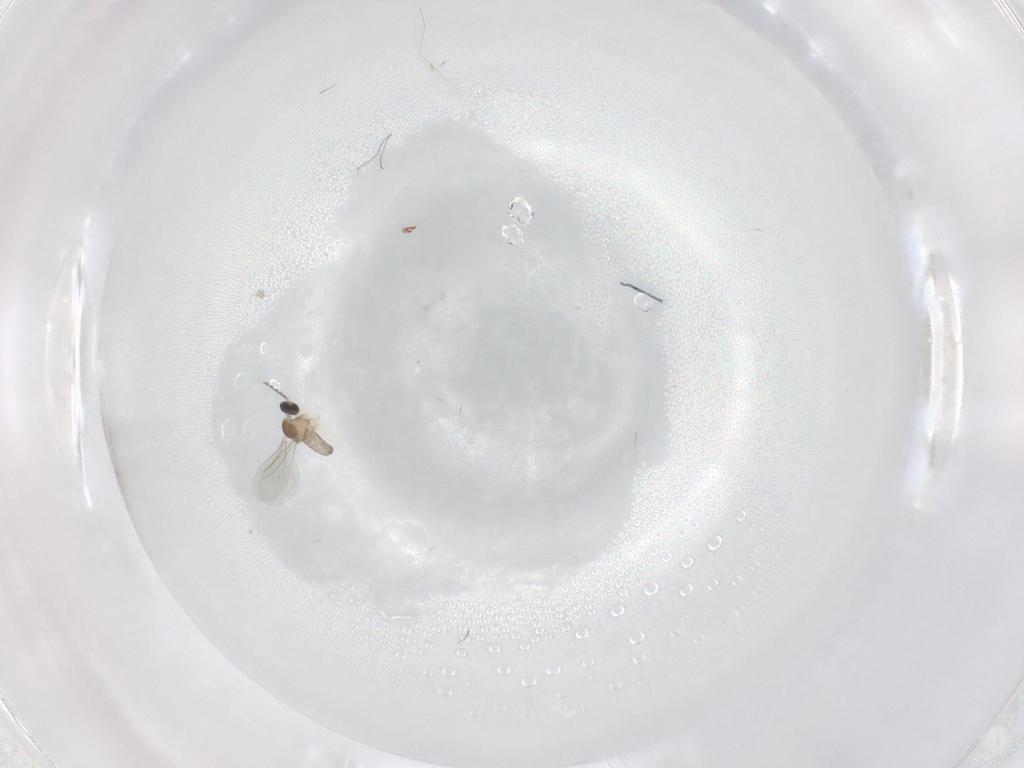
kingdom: Animalia
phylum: Arthropoda
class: Insecta
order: Diptera
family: Cecidomyiidae
